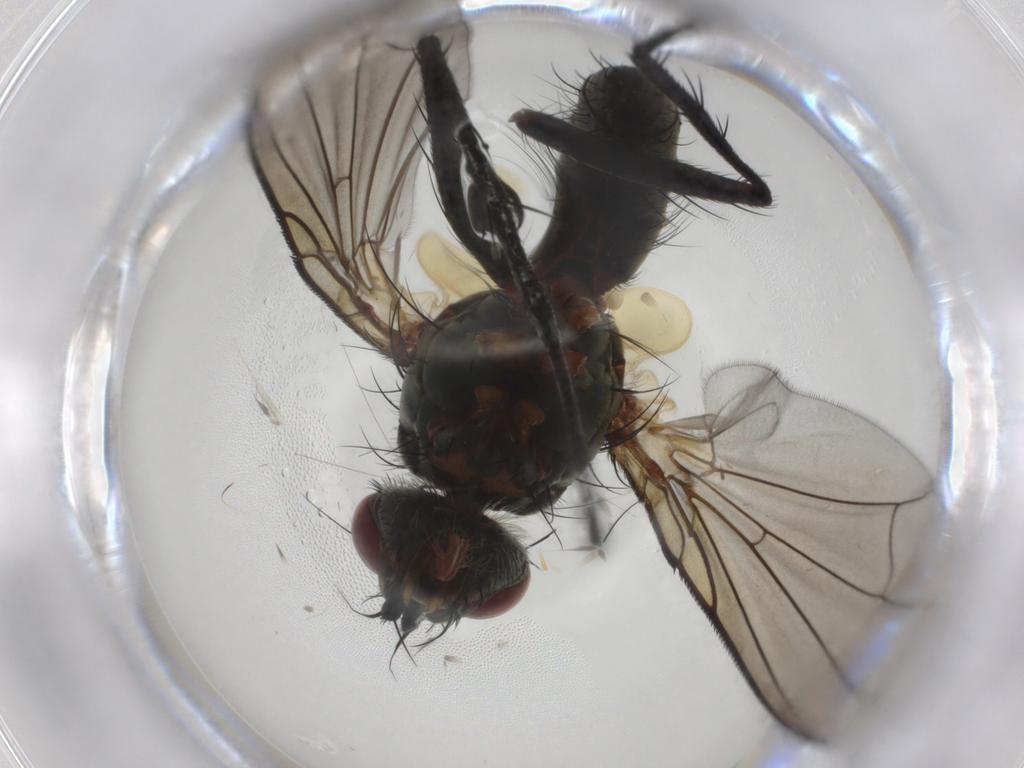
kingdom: Animalia
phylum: Arthropoda
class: Insecta
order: Diptera
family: Tachinidae
